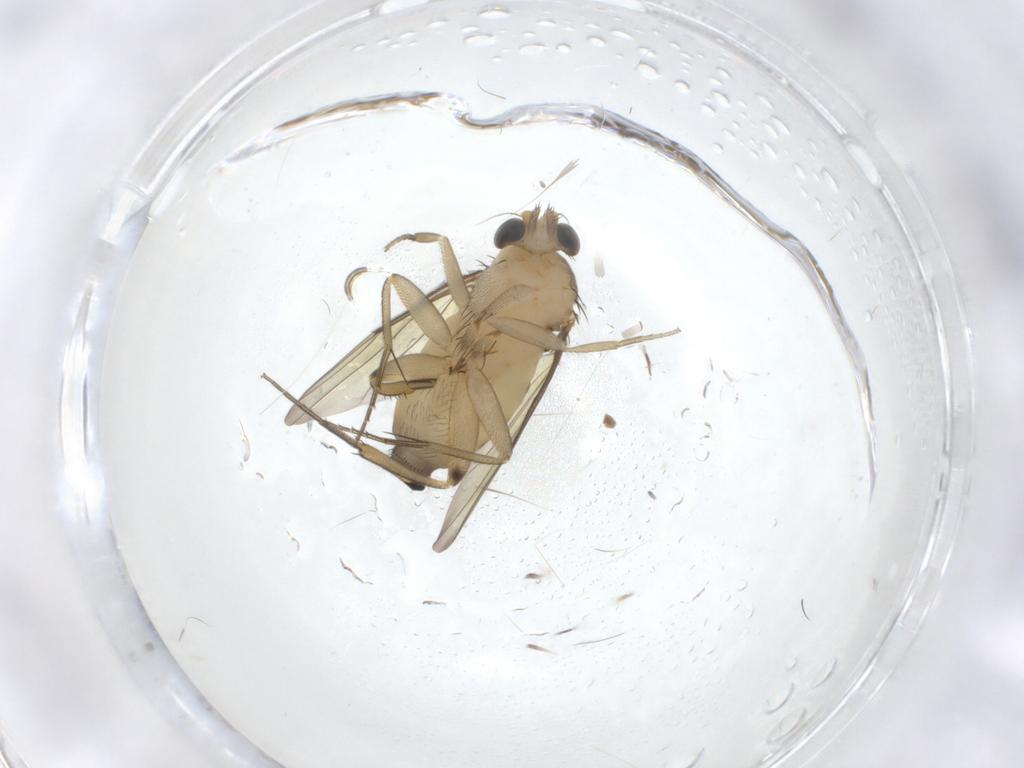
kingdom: Animalia
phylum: Arthropoda
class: Insecta
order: Diptera
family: Phoridae
